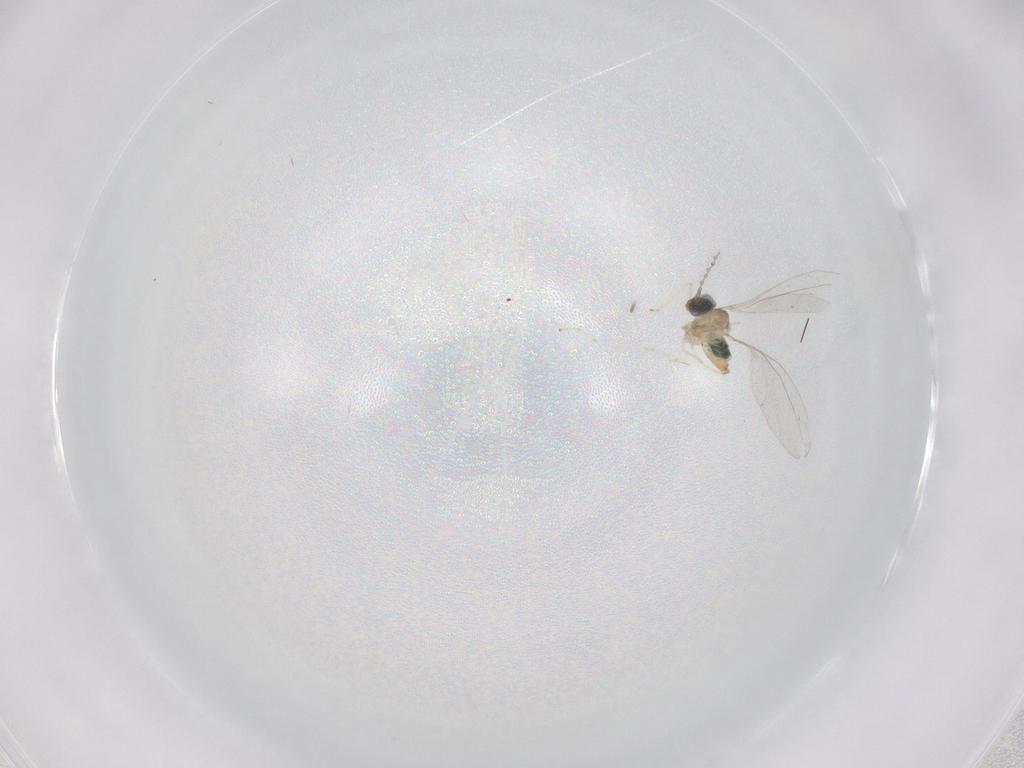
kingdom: Animalia
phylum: Arthropoda
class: Insecta
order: Diptera
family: Cecidomyiidae
